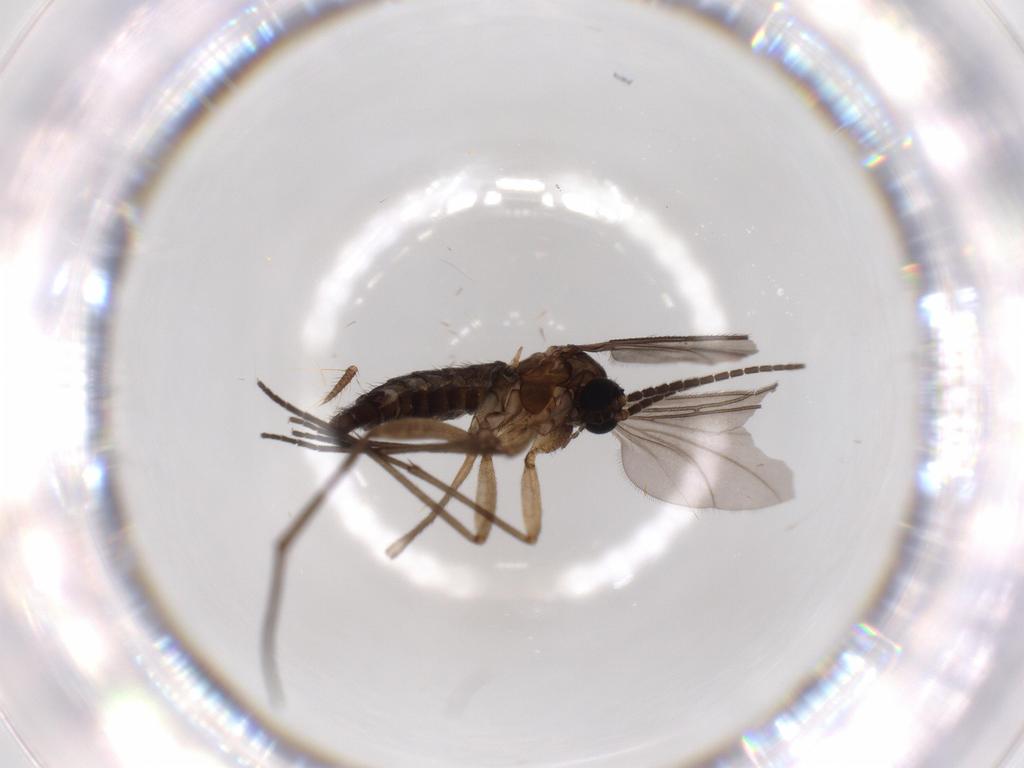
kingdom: Animalia
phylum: Arthropoda
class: Insecta
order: Diptera
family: Sciaridae
